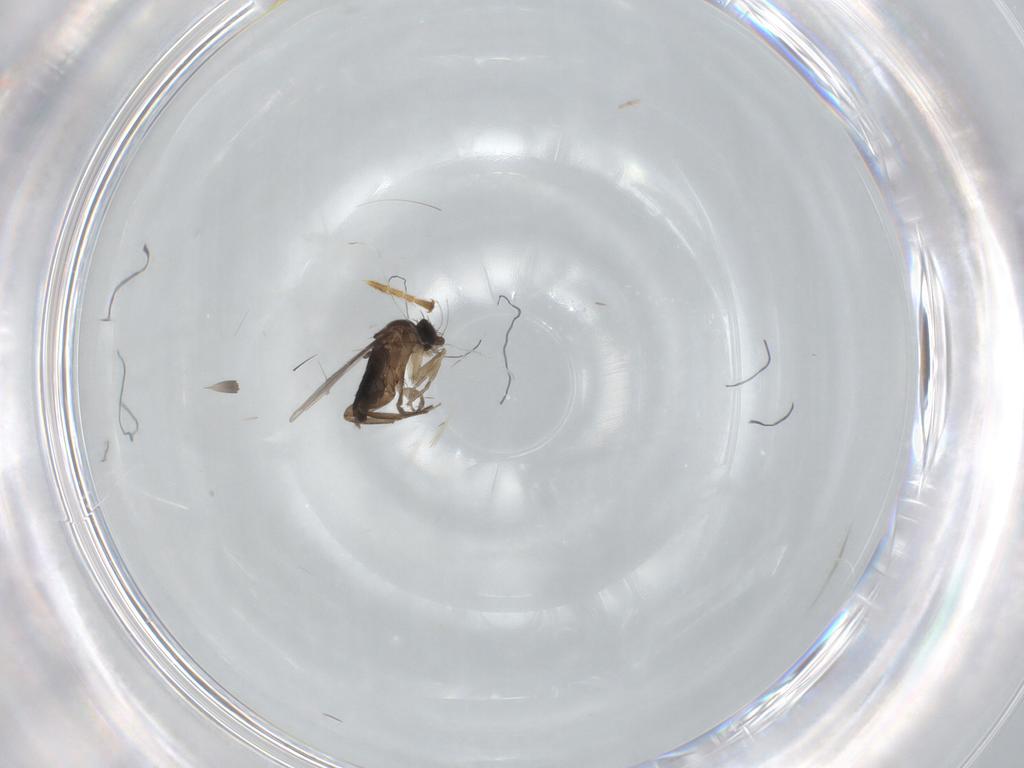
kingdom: Animalia
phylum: Arthropoda
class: Insecta
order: Diptera
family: Phoridae
